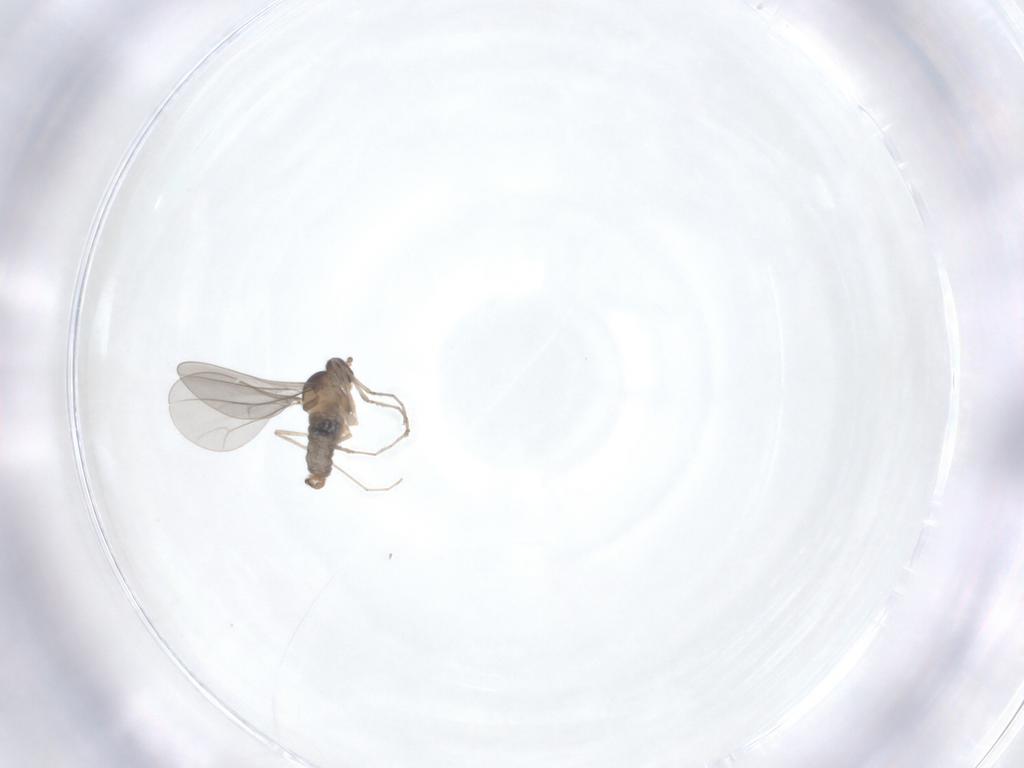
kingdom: Animalia
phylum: Arthropoda
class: Insecta
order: Diptera
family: Cecidomyiidae
